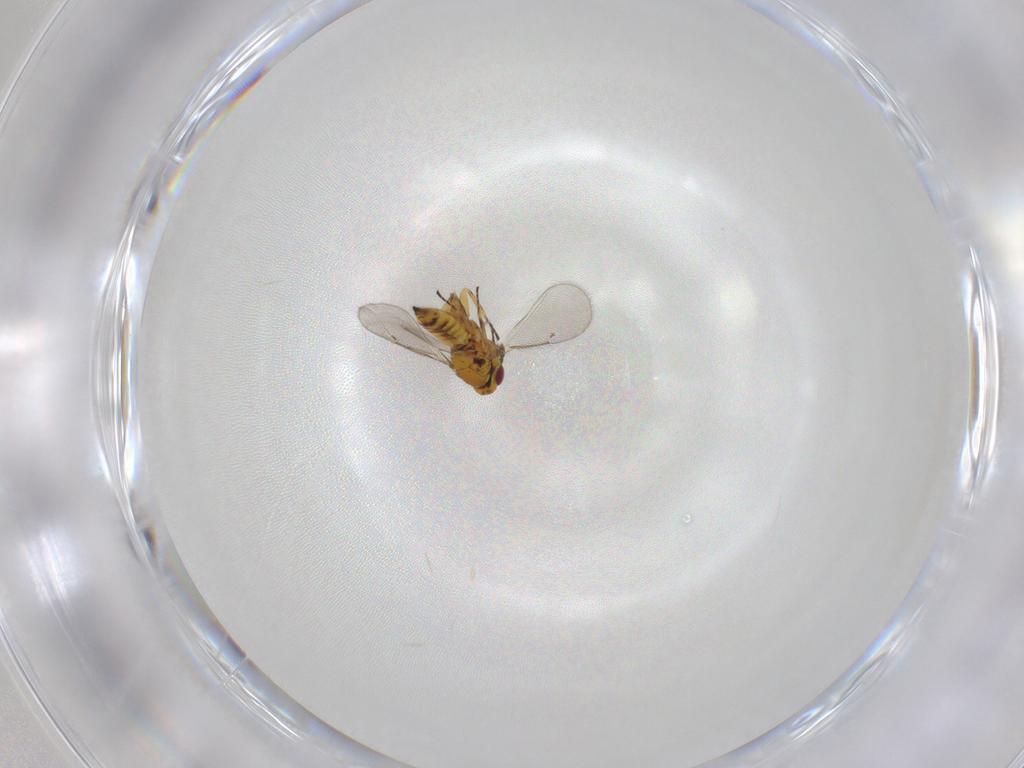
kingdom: Animalia
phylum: Arthropoda
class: Insecta
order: Hymenoptera
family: Eulophidae
